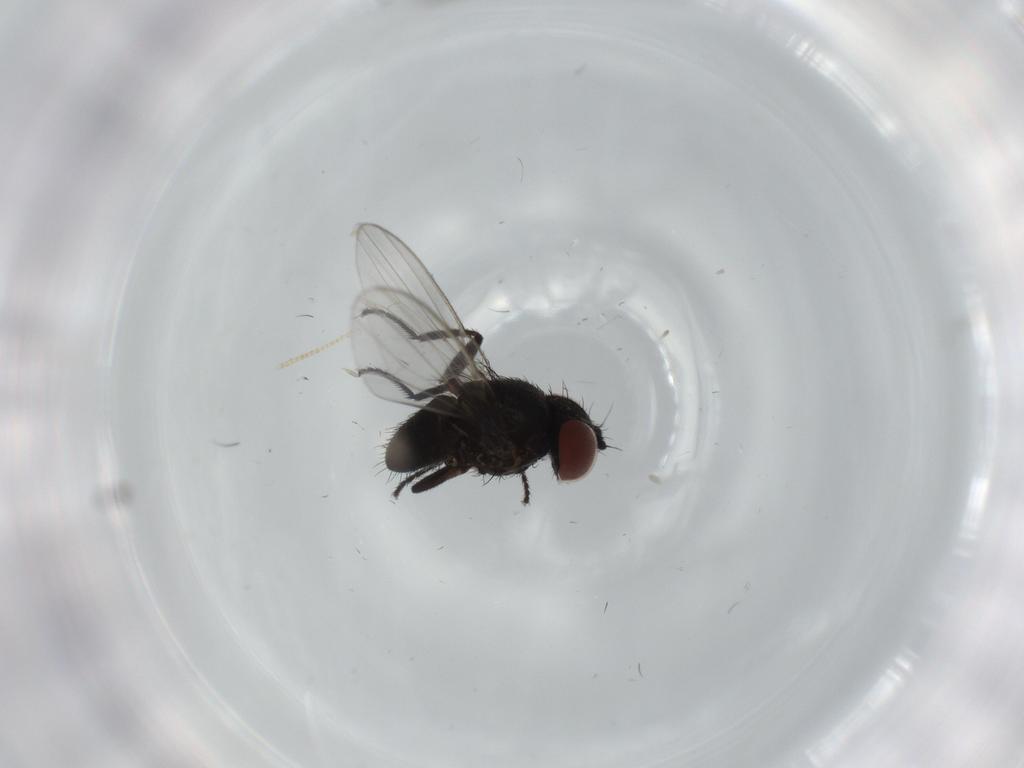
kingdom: Animalia
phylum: Arthropoda
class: Insecta
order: Diptera
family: Milichiidae
